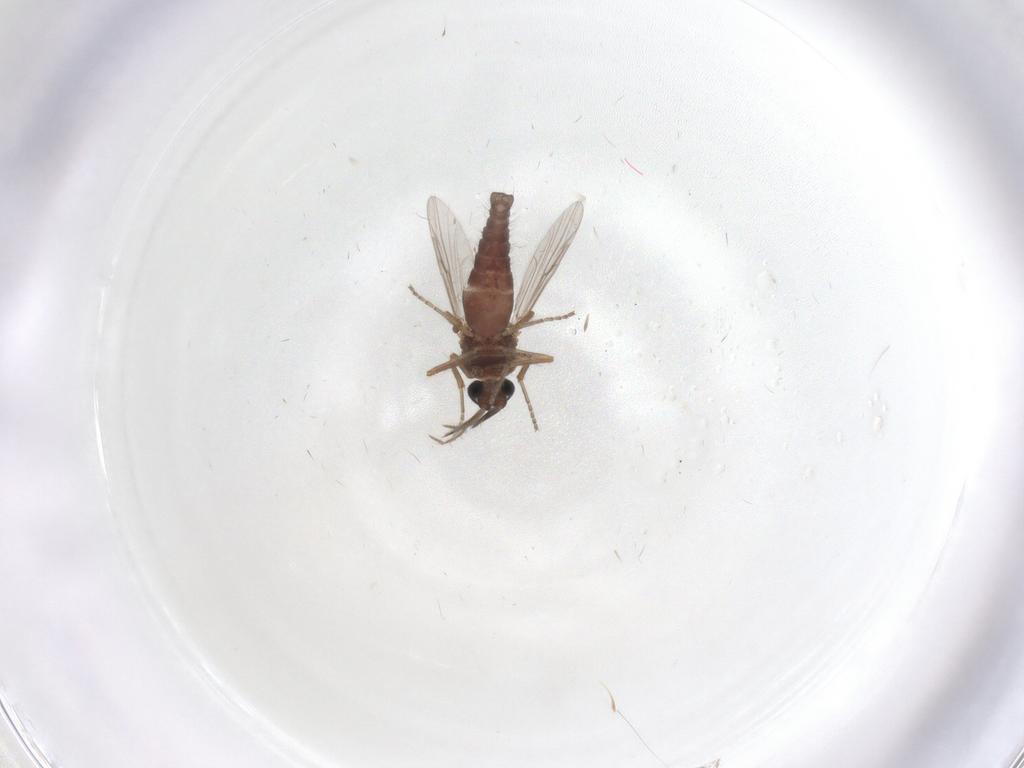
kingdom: Animalia
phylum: Arthropoda
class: Insecta
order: Diptera
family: Ceratopogonidae
